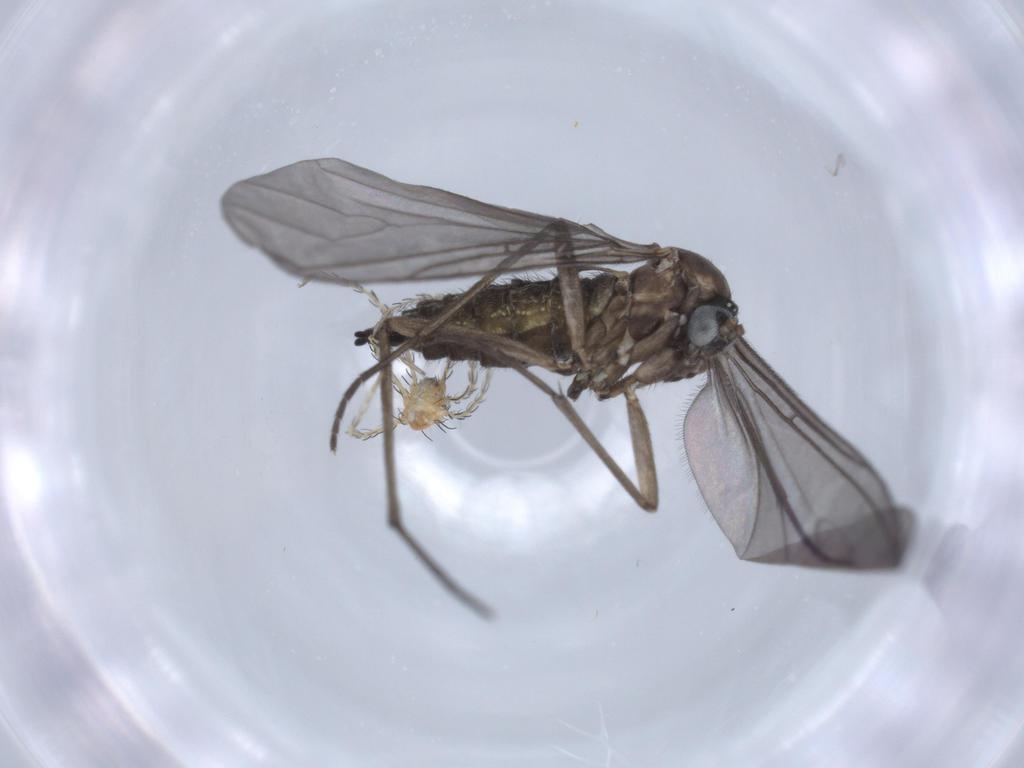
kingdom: Animalia
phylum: Arthropoda
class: Insecta
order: Diptera
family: Sciaridae
